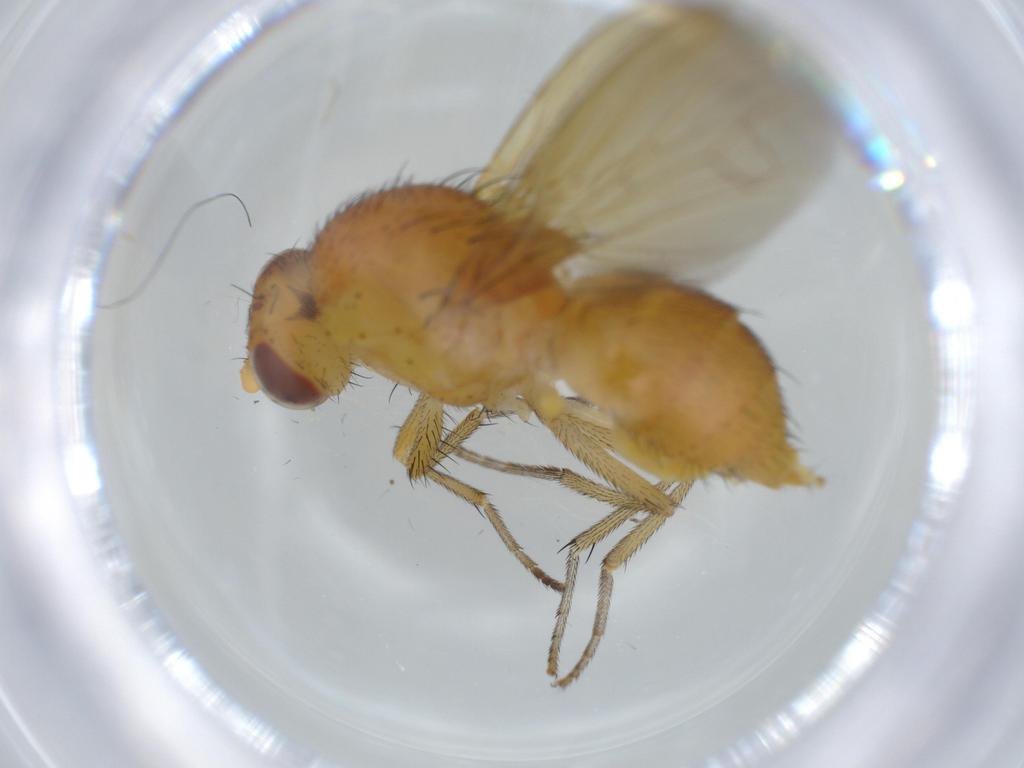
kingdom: Animalia
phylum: Arthropoda
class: Insecta
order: Diptera
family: Cecidomyiidae
